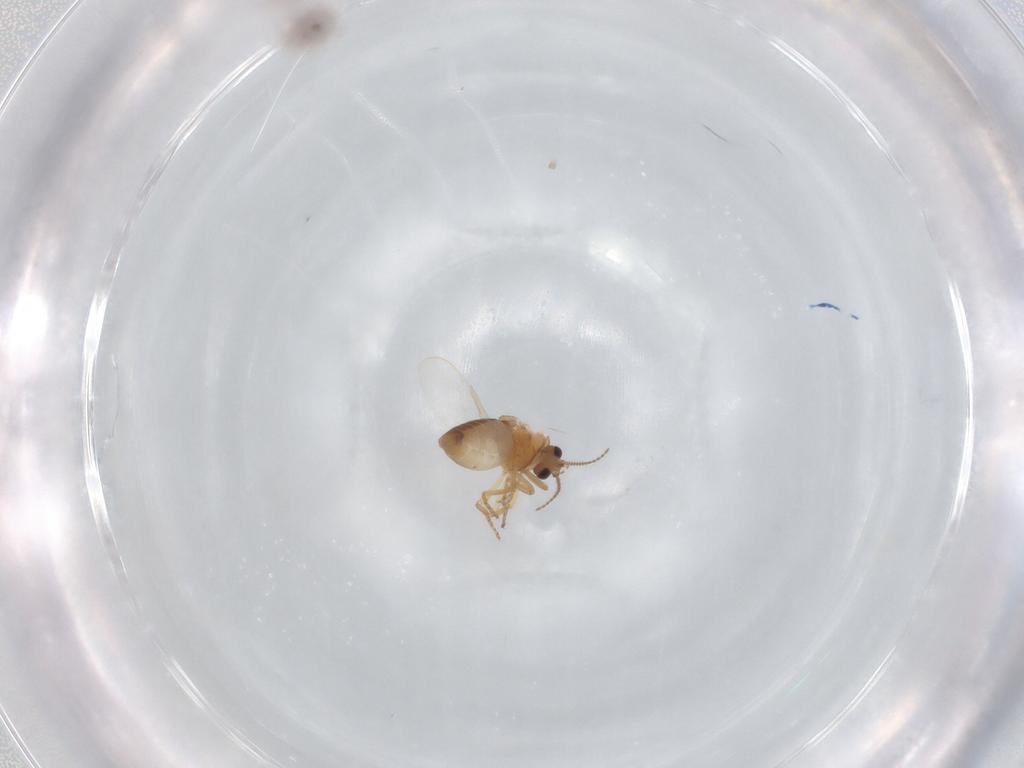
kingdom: Animalia
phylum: Arthropoda
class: Insecta
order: Diptera
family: Ceratopogonidae
